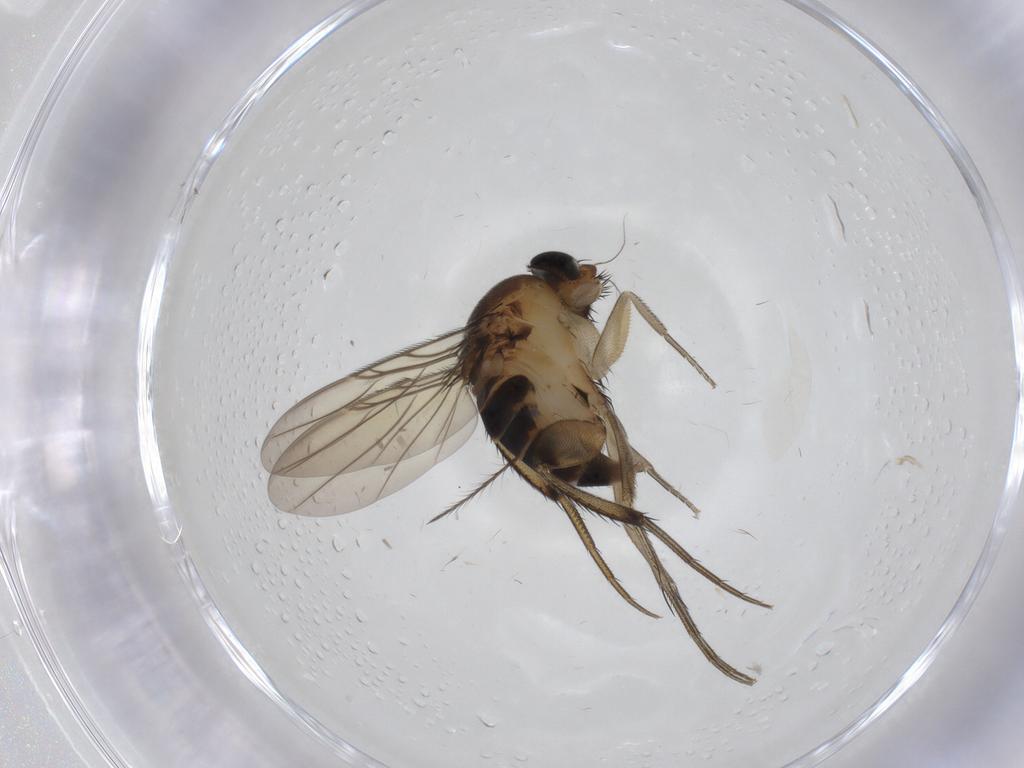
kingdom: Animalia
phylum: Arthropoda
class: Insecta
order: Diptera
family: Phoridae
